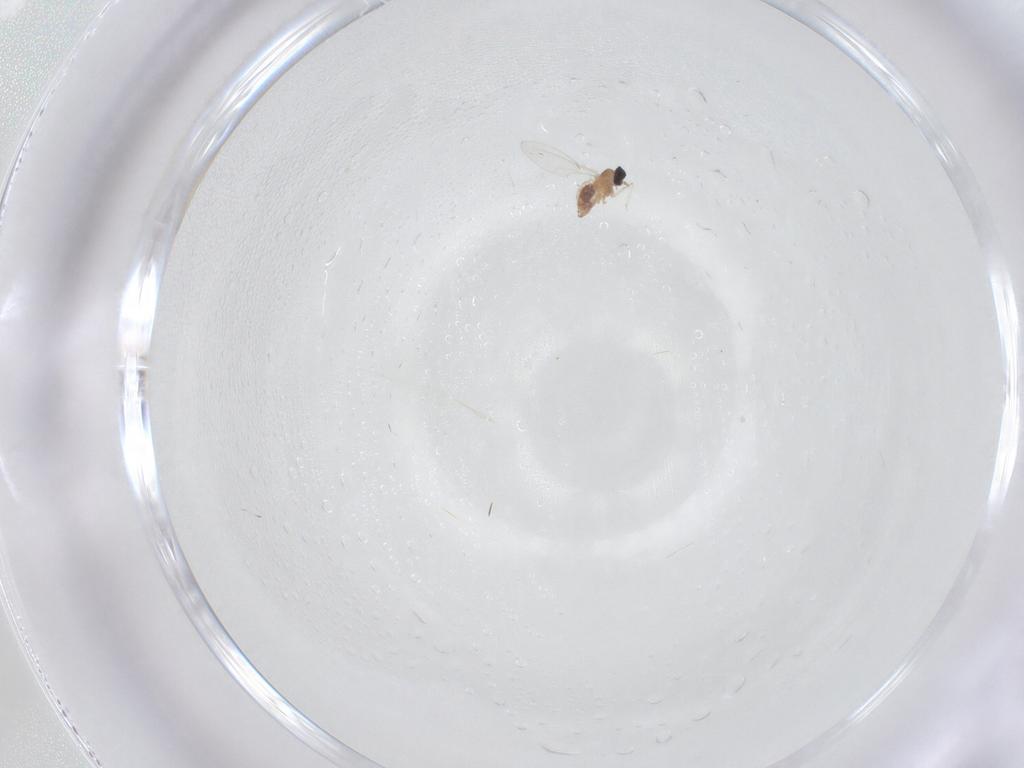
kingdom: Animalia
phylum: Arthropoda
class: Insecta
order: Diptera
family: Cecidomyiidae
